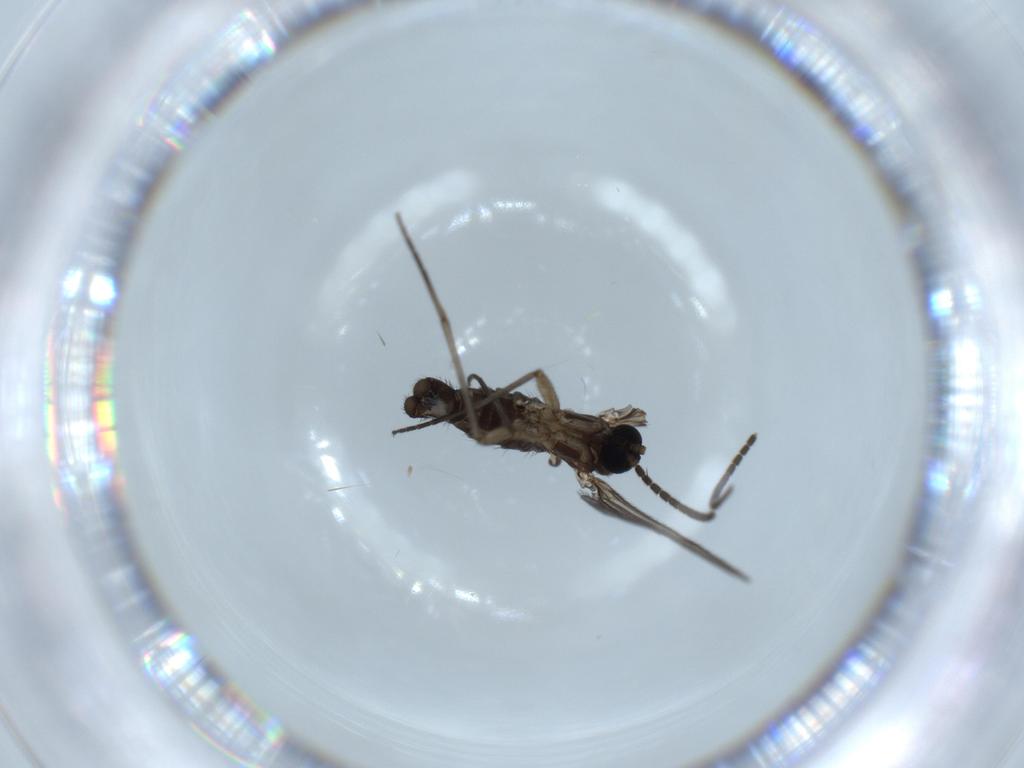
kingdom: Animalia
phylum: Arthropoda
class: Insecta
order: Diptera
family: Sciaridae
